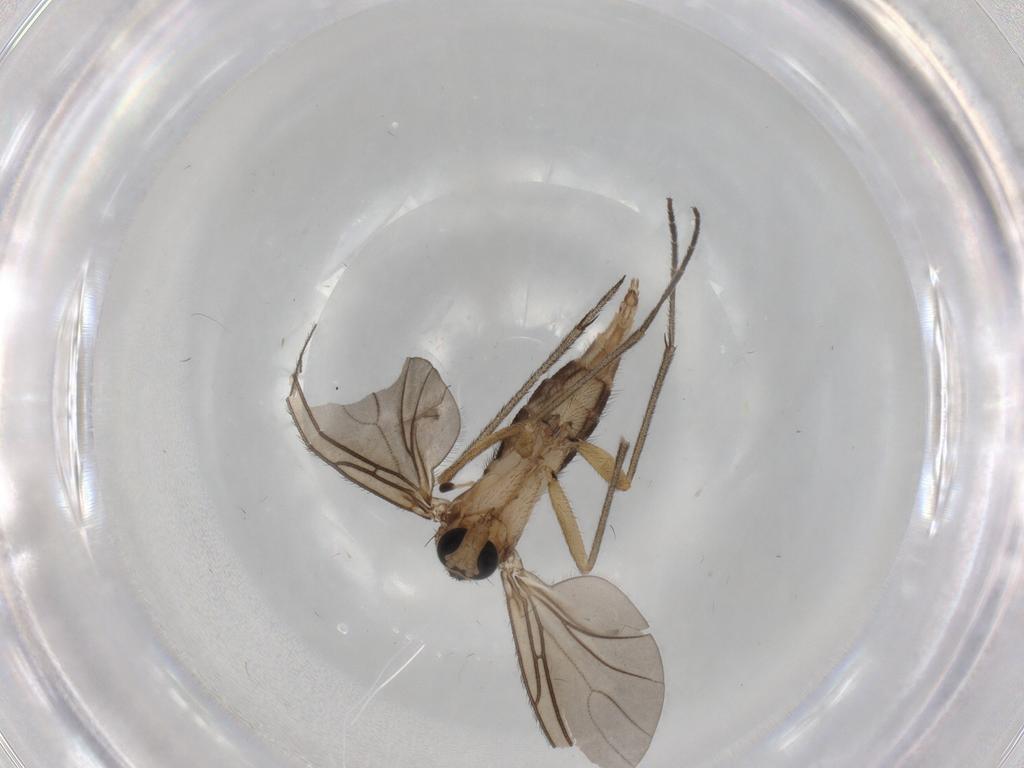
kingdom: Animalia
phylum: Arthropoda
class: Insecta
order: Diptera
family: Sciaridae
